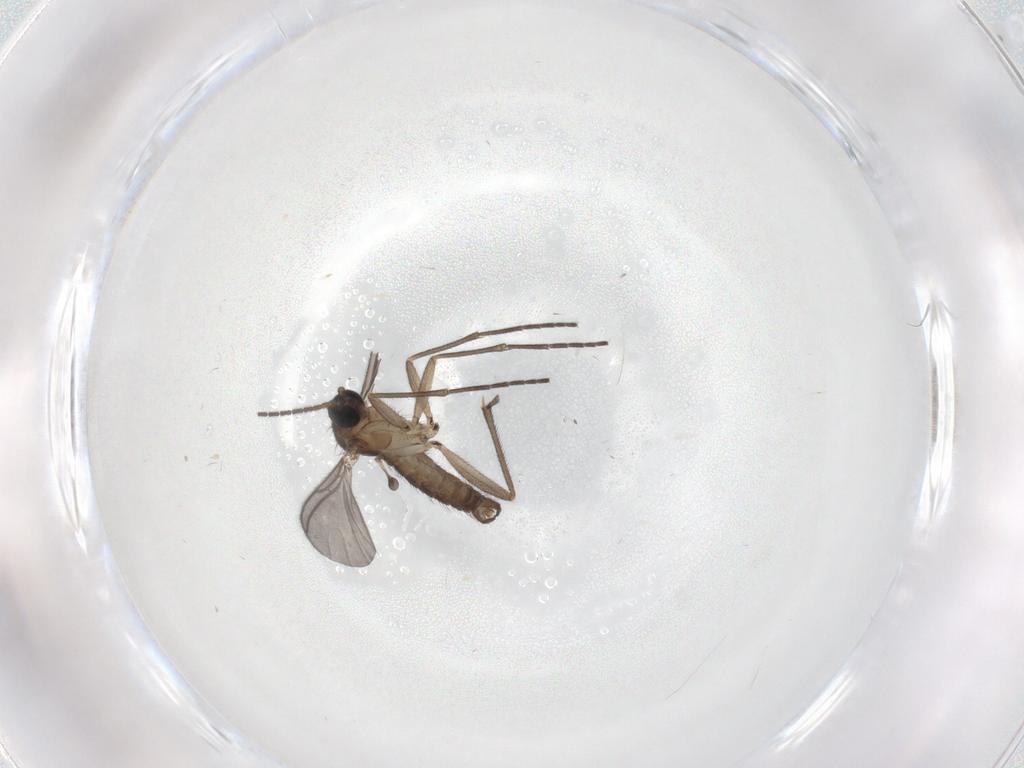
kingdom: Animalia
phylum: Arthropoda
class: Insecta
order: Diptera
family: Sciaridae
